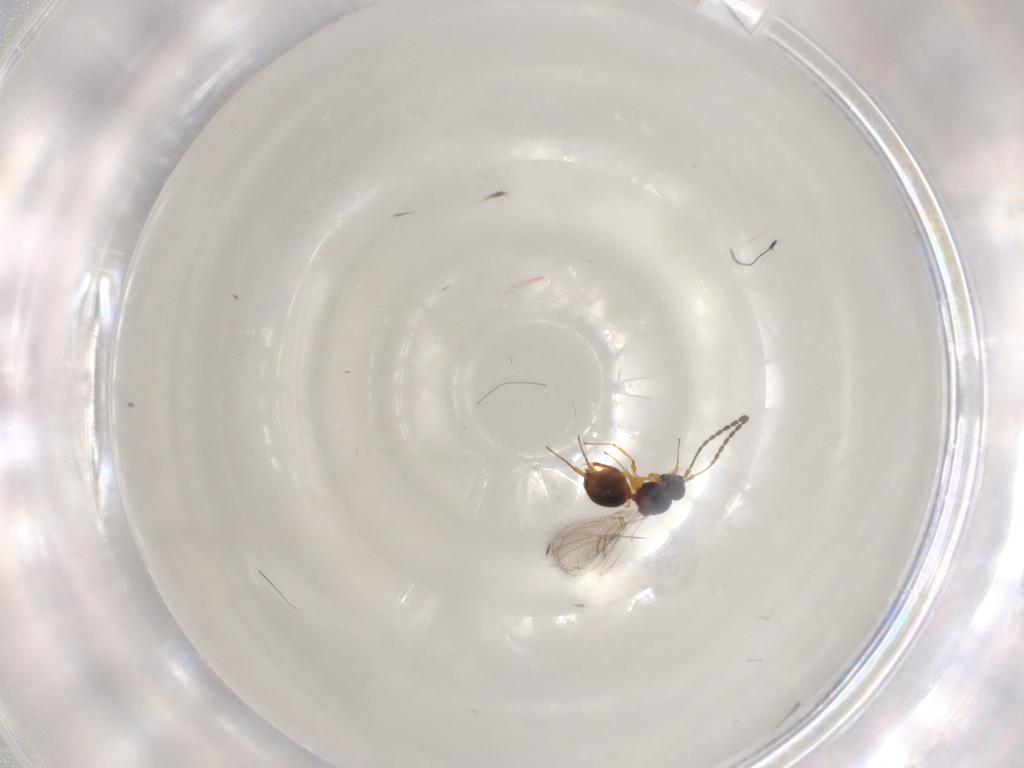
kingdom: Animalia
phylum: Arthropoda
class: Insecta
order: Hymenoptera
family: Figitidae
